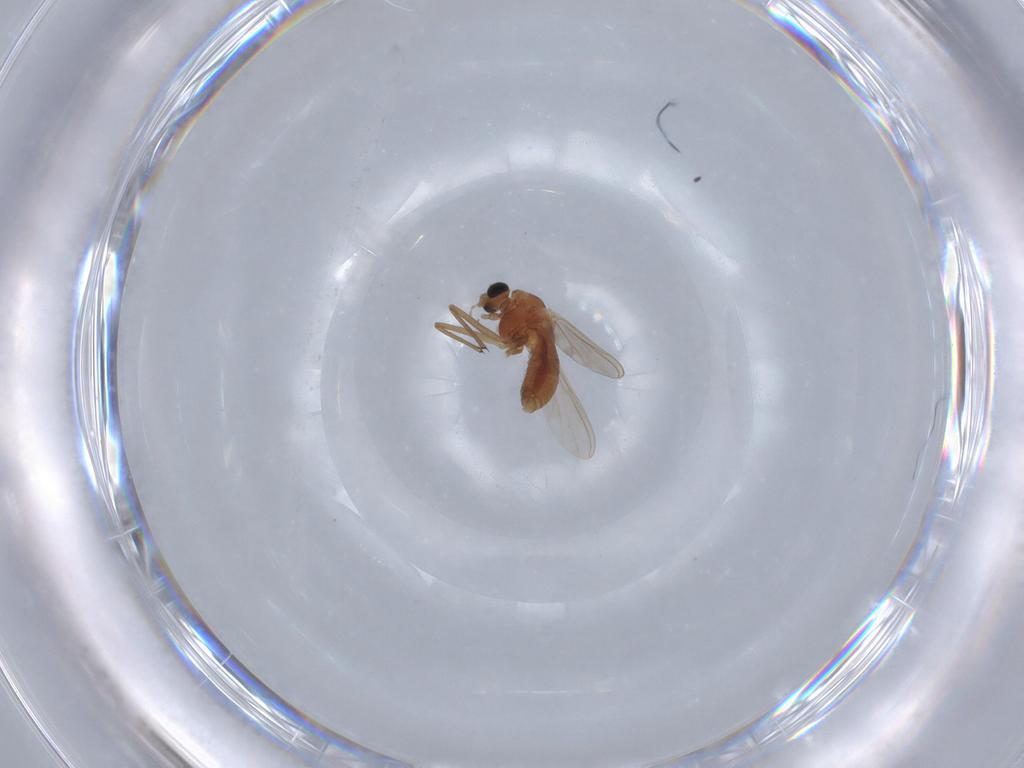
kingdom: Animalia
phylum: Arthropoda
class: Insecta
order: Diptera
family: Chironomidae
